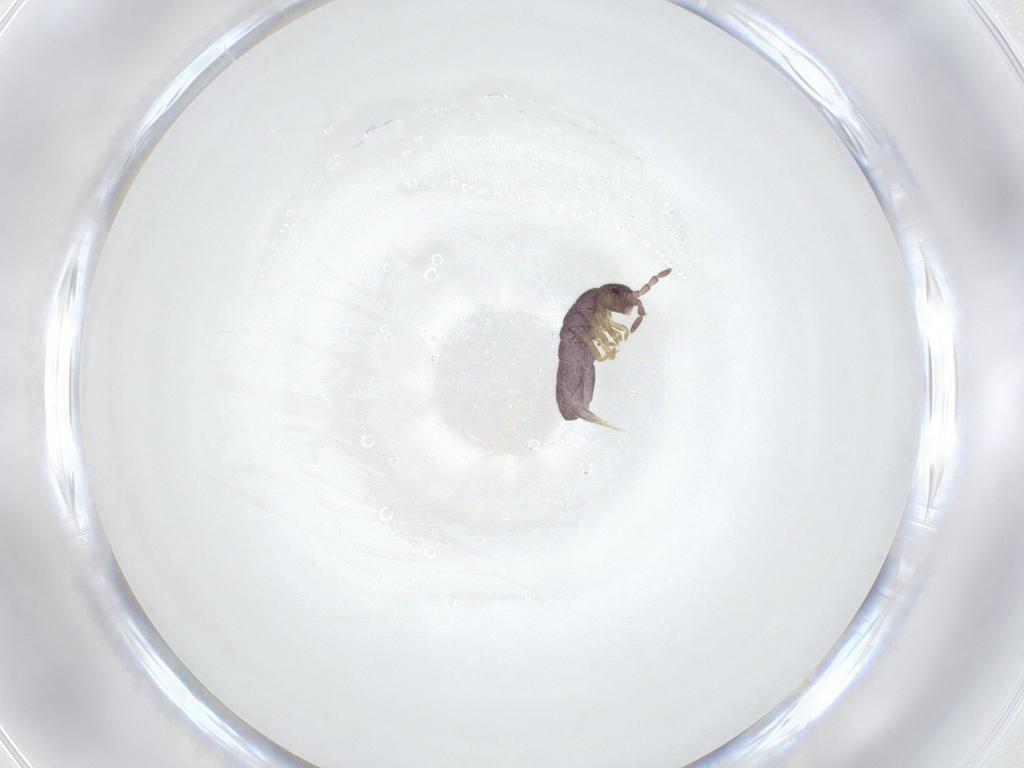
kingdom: Animalia
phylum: Arthropoda
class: Collembola
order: Entomobryomorpha
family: Isotomidae
